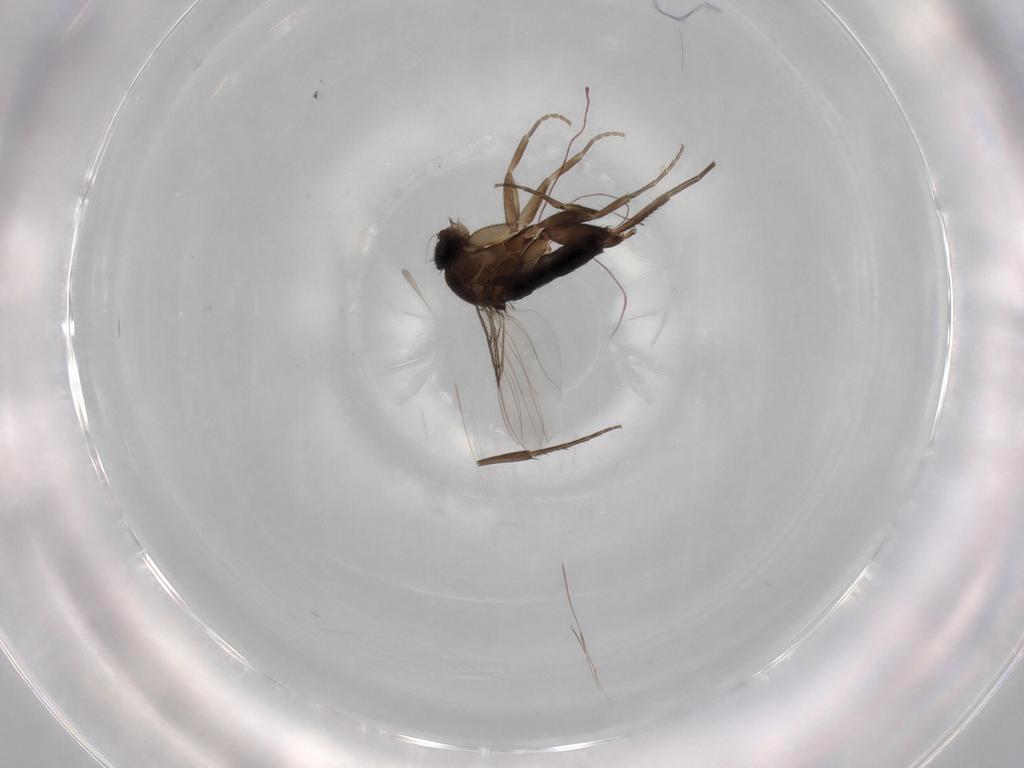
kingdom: Animalia
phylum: Arthropoda
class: Insecta
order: Diptera
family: Phoridae
